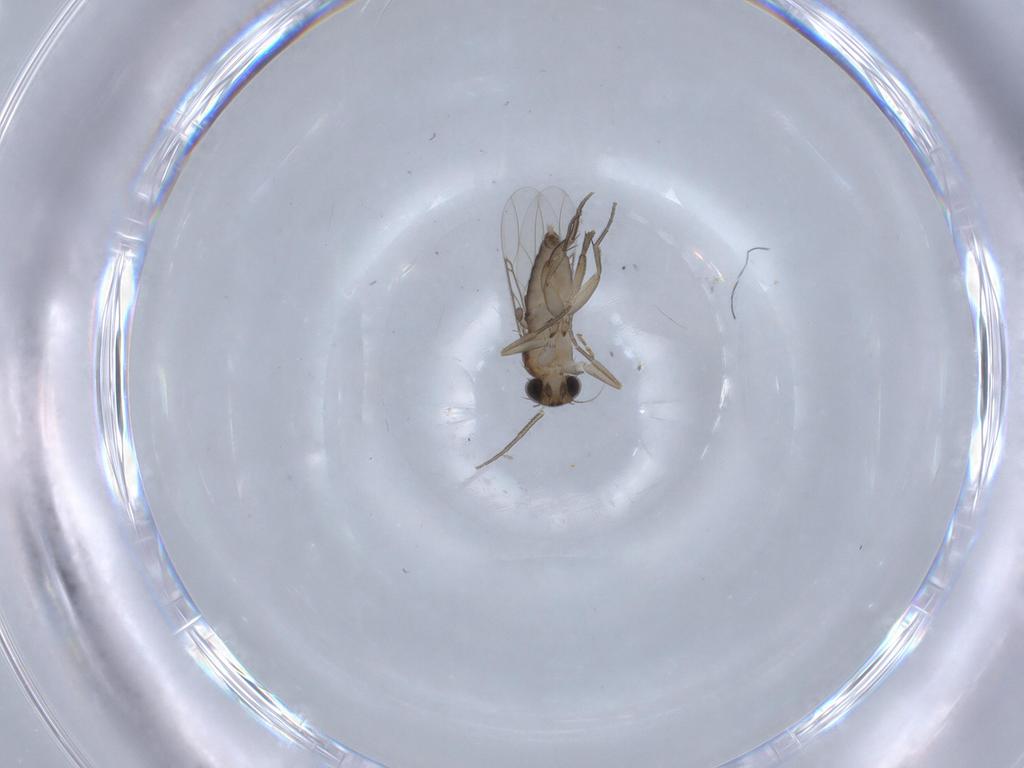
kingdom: Animalia
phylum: Arthropoda
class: Insecta
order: Diptera
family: Phoridae
